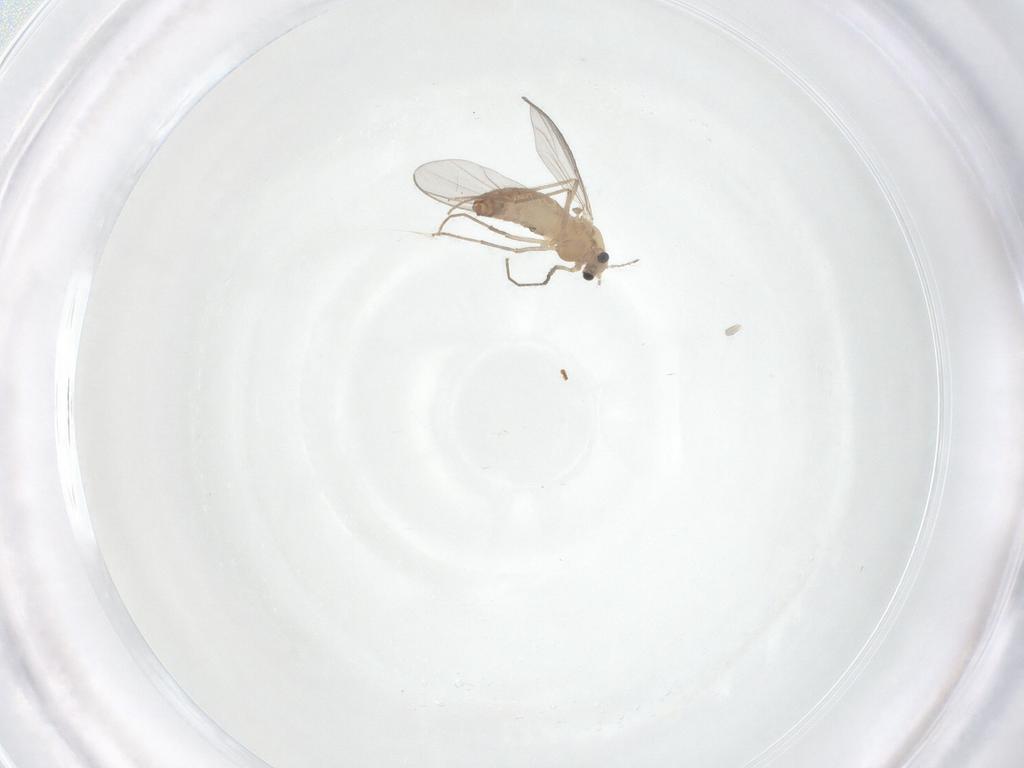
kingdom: Animalia
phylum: Arthropoda
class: Insecta
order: Diptera
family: Chironomidae
